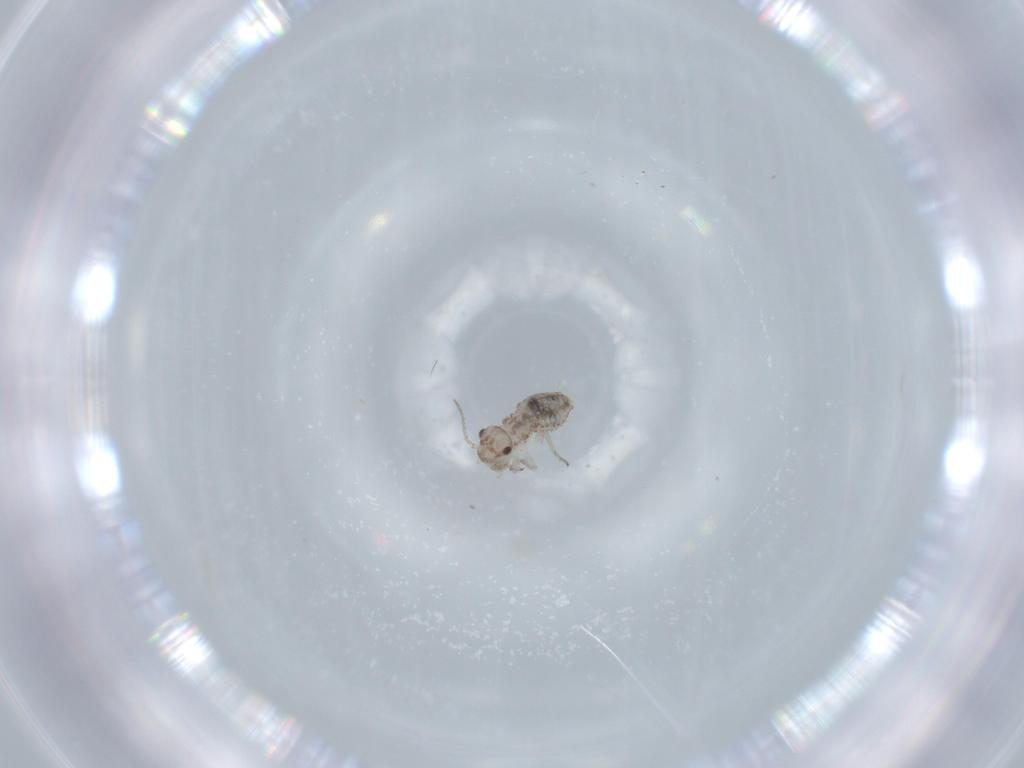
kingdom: Animalia
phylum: Arthropoda
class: Insecta
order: Psocodea
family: Caeciliusidae
